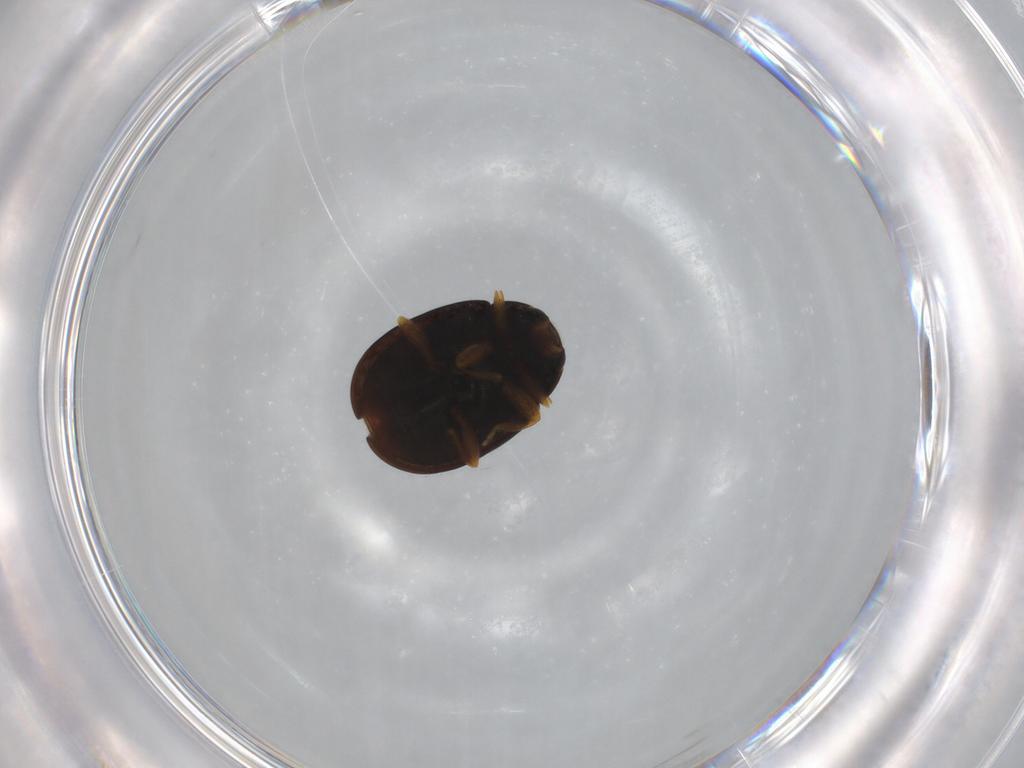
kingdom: Animalia
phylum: Arthropoda
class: Insecta
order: Coleoptera
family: Coccinellidae
